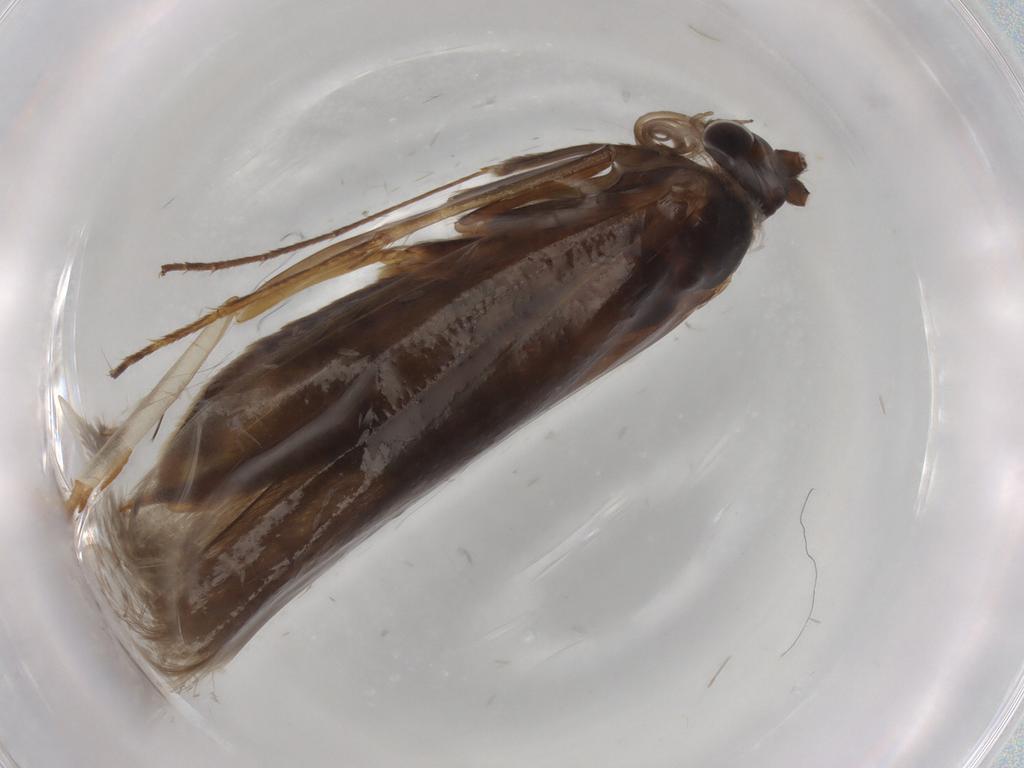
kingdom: Animalia
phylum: Arthropoda
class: Insecta
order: Lepidoptera
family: Adelidae
